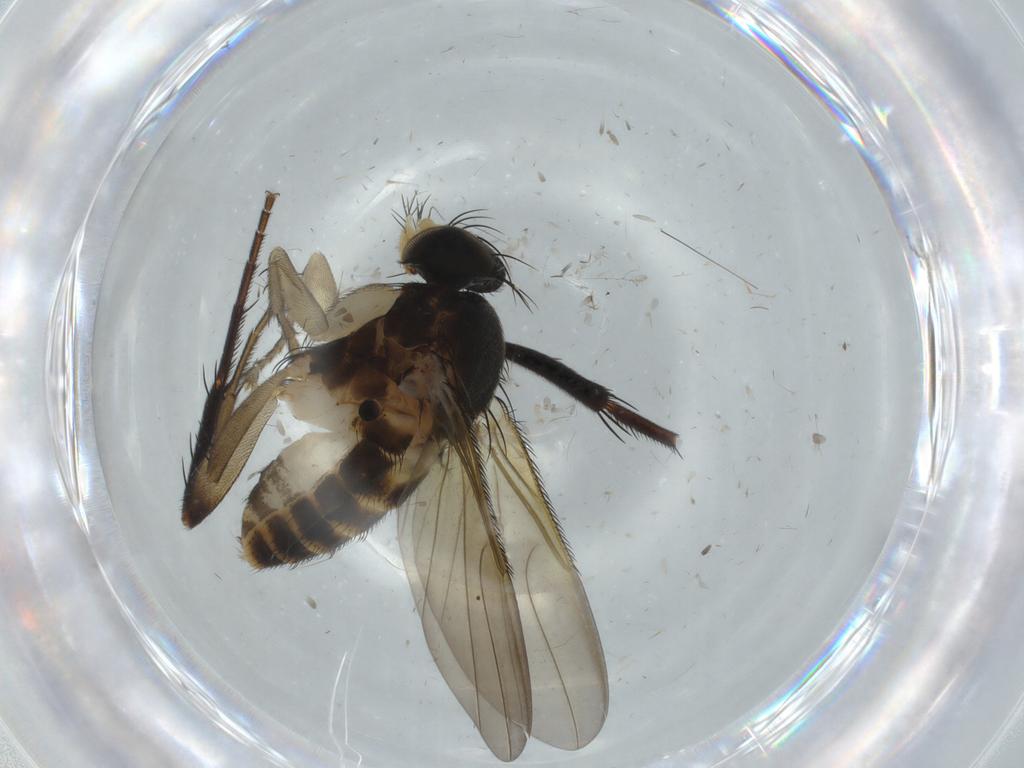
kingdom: Animalia
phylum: Arthropoda
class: Insecta
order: Diptera
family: Phoridae
